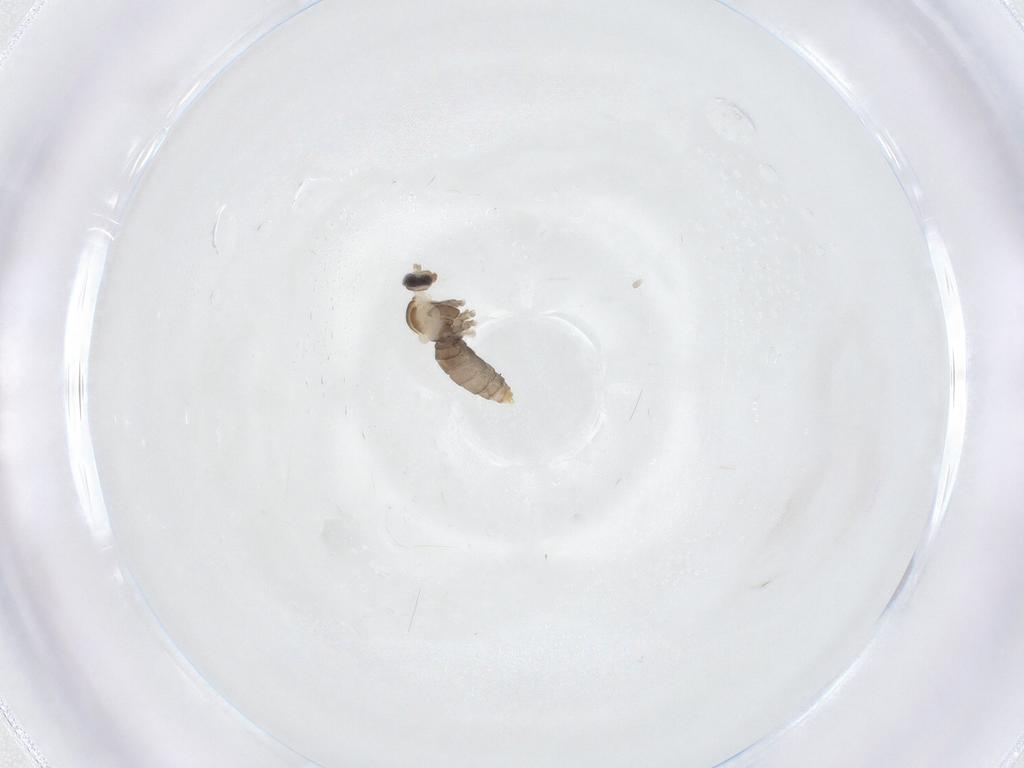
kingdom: Animalia
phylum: Arthropoda
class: Insecta
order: Diptera
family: Cecidomyiidae
